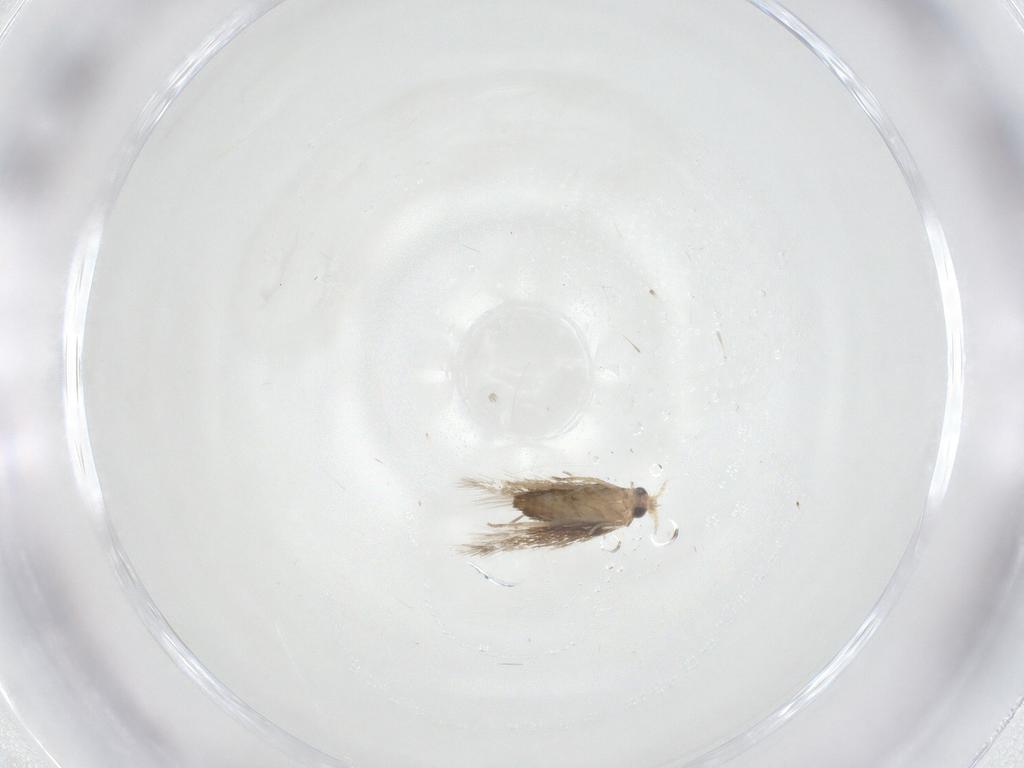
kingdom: Animalia
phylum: Arthropoda
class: Insecta
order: Lepidoptera
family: Nepticulidae
